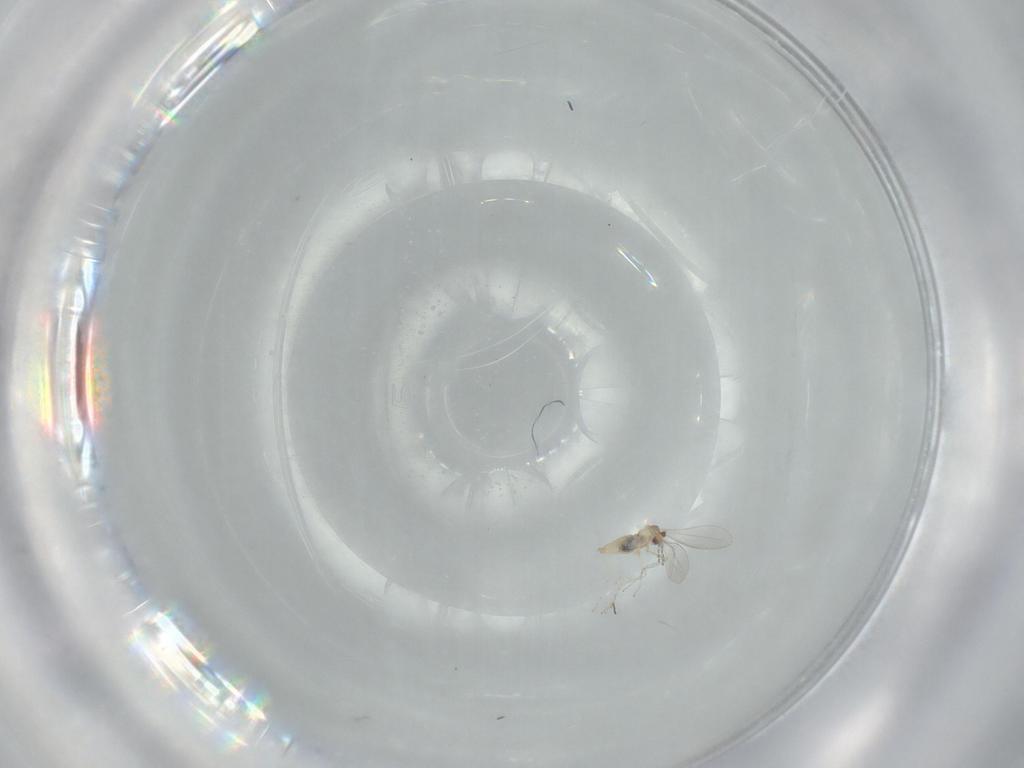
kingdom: Animalia
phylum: Arthropoda
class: Insecta
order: Diptera
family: Cecidomyiidae
